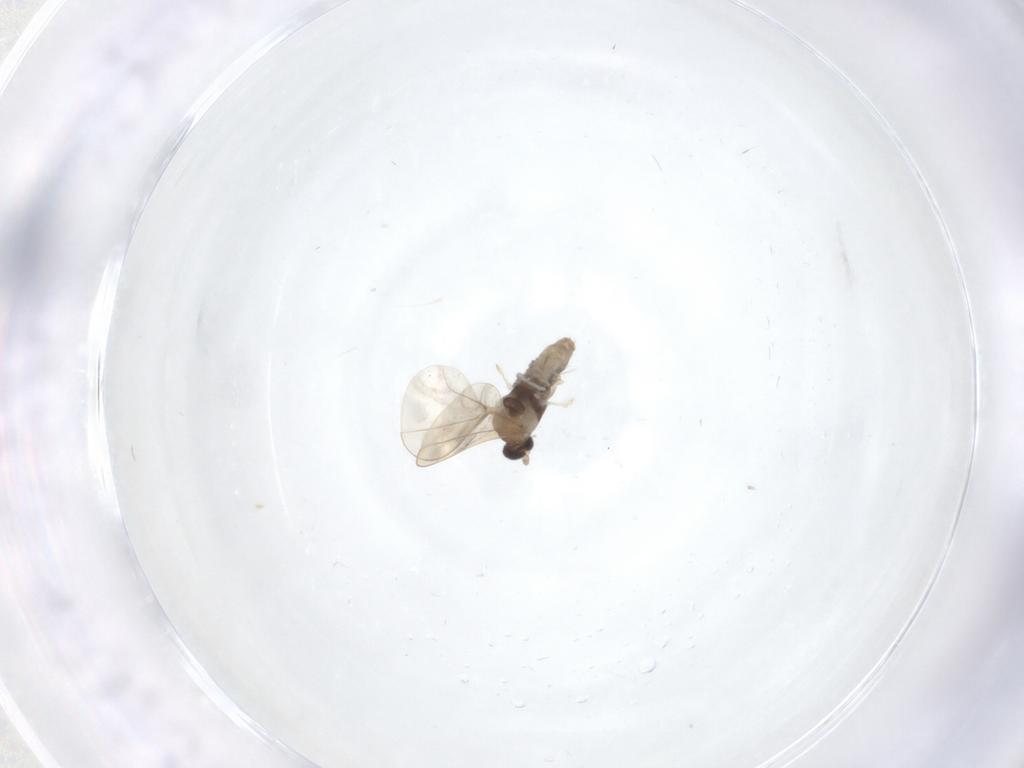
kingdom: Animalia
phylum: Arthropoda
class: Insecta
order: Diptera
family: Cecidomyiidae
